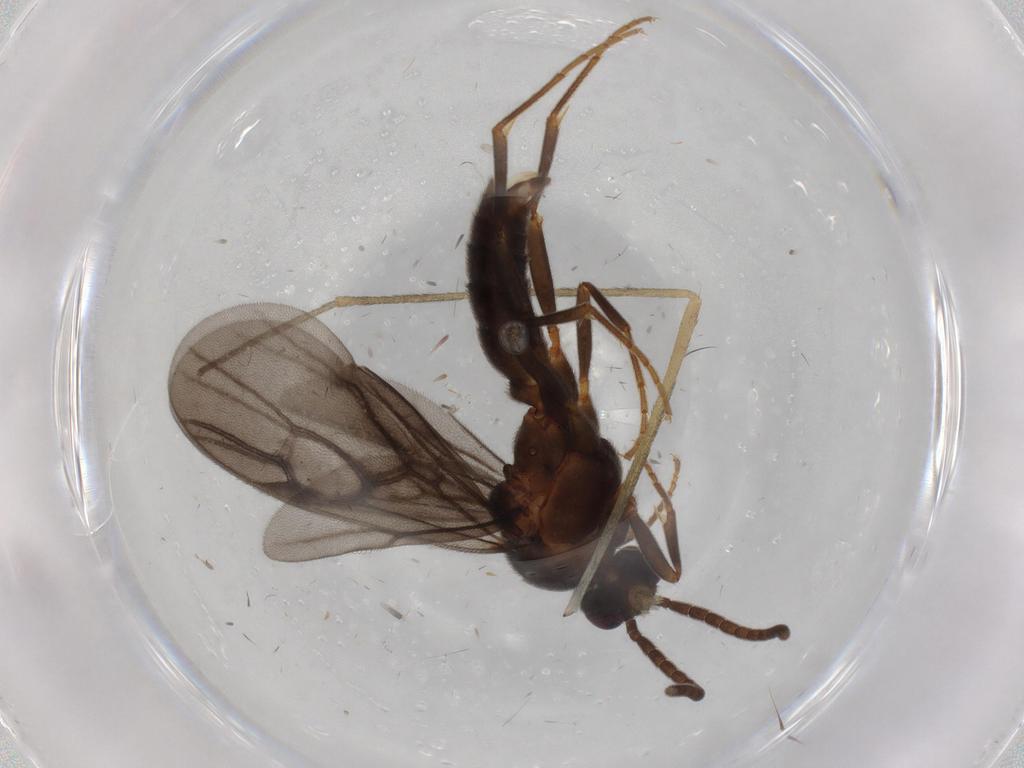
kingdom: Animalia
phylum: Arthropoda
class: Insecta
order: Hymenoptera
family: Formicidae
